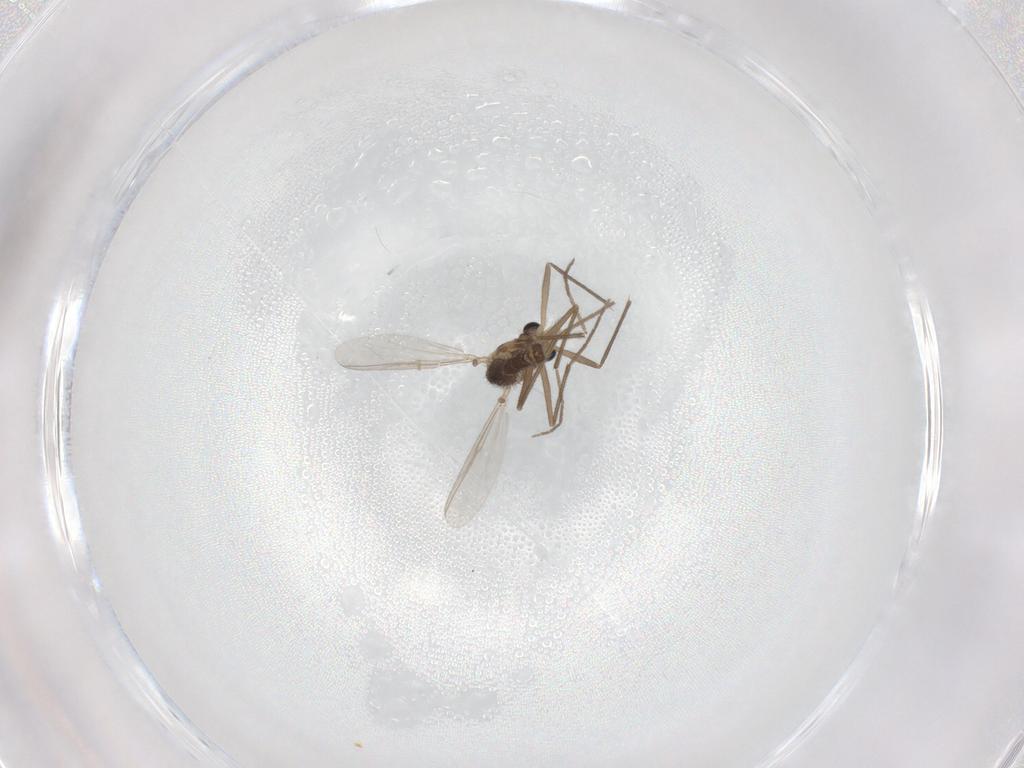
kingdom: Animalia
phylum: Arthropoda
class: Insecta
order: Diptera
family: Chironomidae
